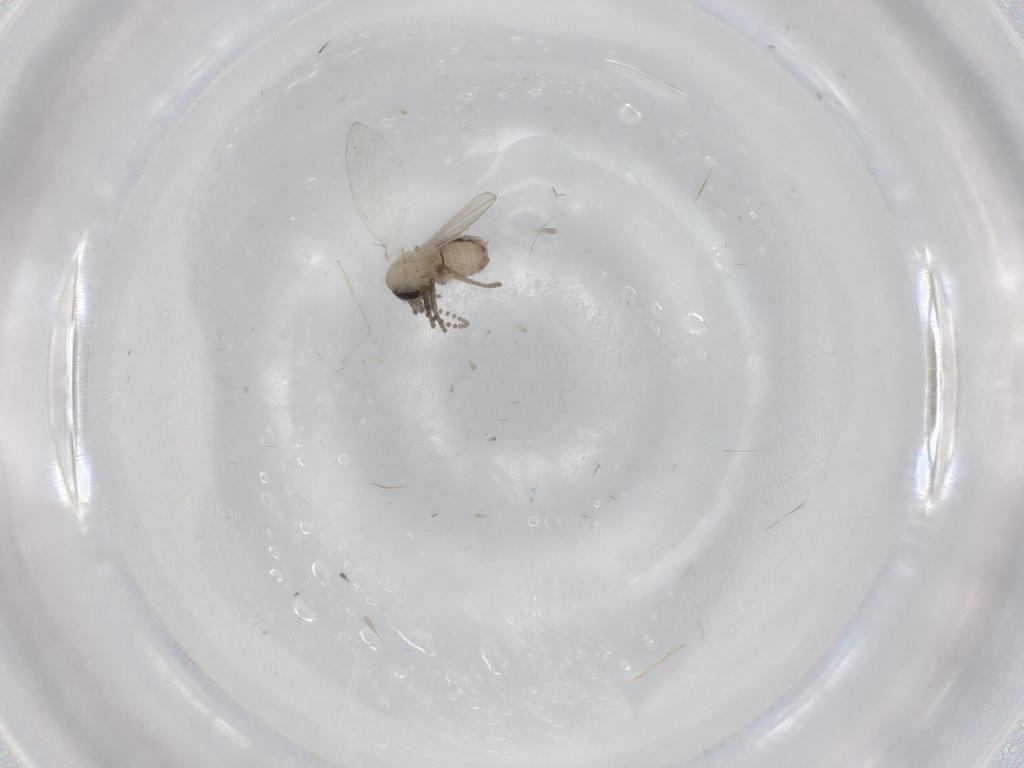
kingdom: Animalia
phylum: Arthropoda
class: Insecta
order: Diptera
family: Psychodidae
